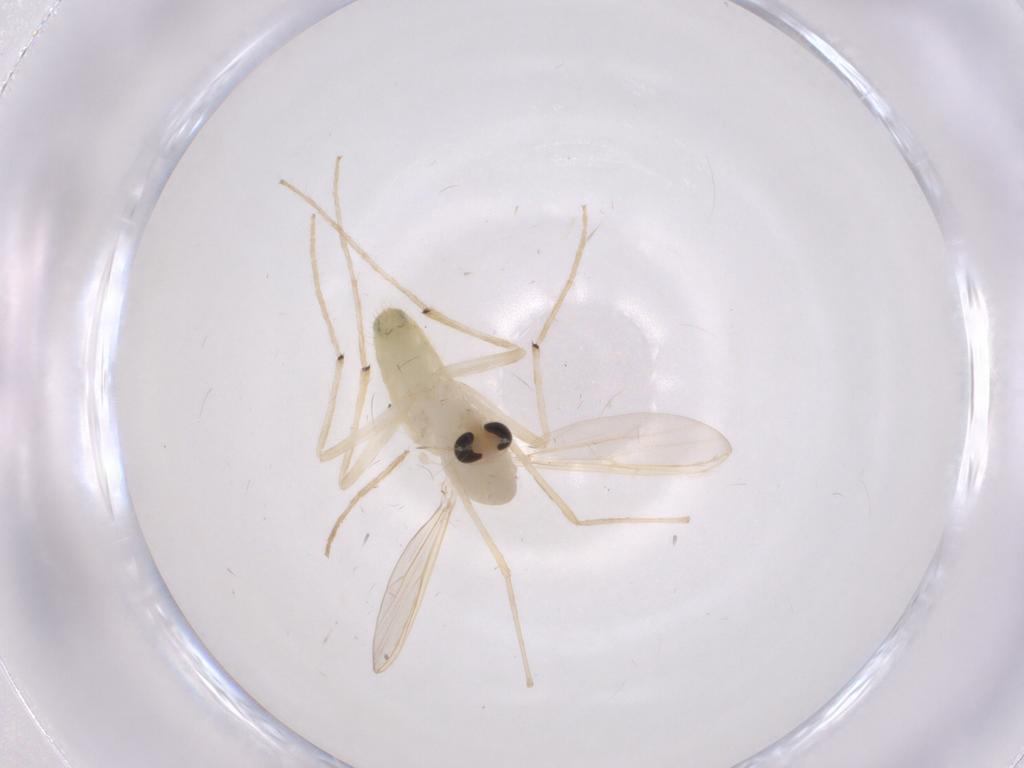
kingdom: Animalia
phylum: Arthropoda
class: Insecta
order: Diptera
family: Chironomidae
